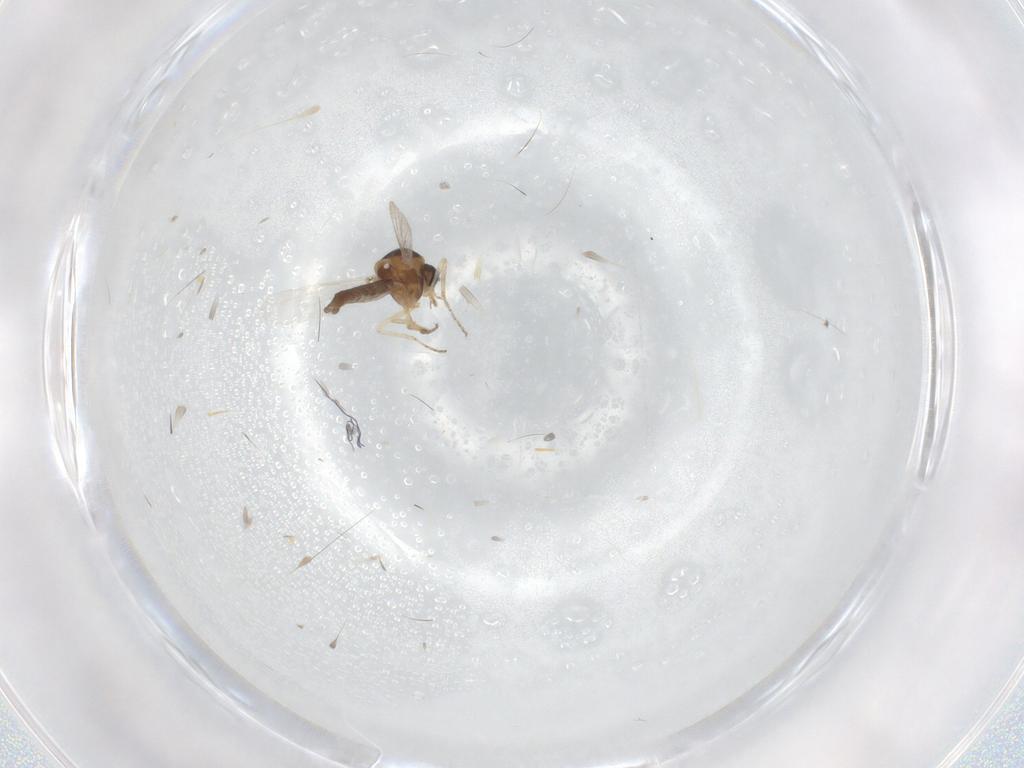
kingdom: Animalia
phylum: Arthropoda
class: Insecta
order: Diptera
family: Ceratopogonidae
